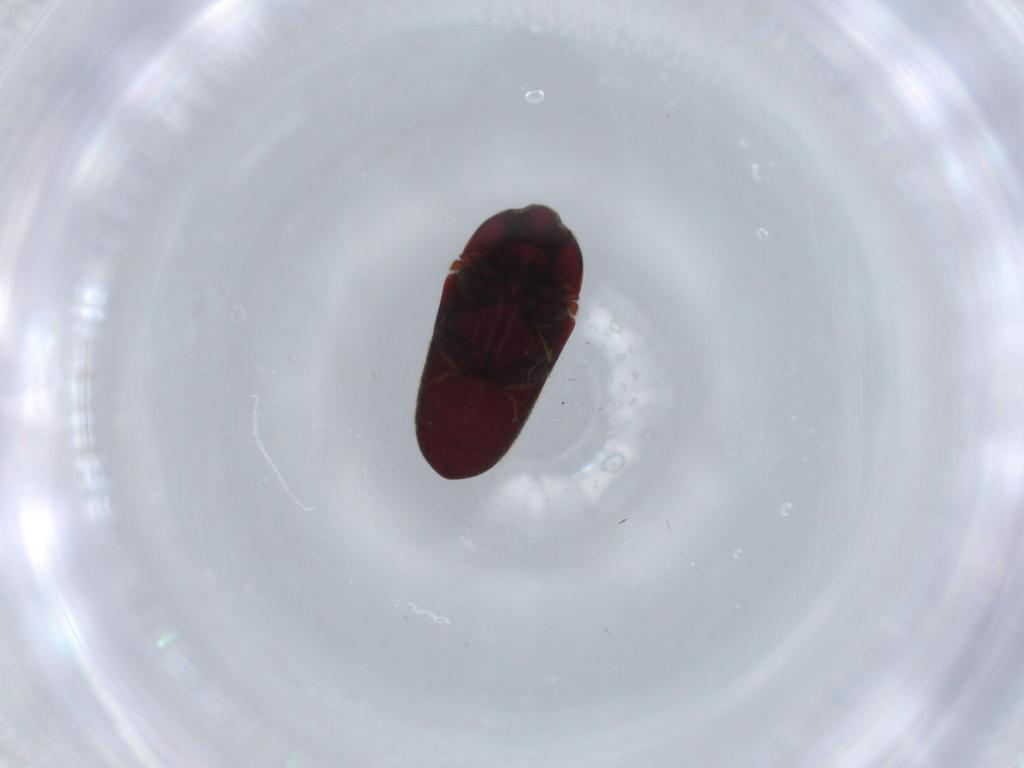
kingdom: Animalia
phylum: Arthropoda
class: Insecta
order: Coleoptera
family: Throscidae
